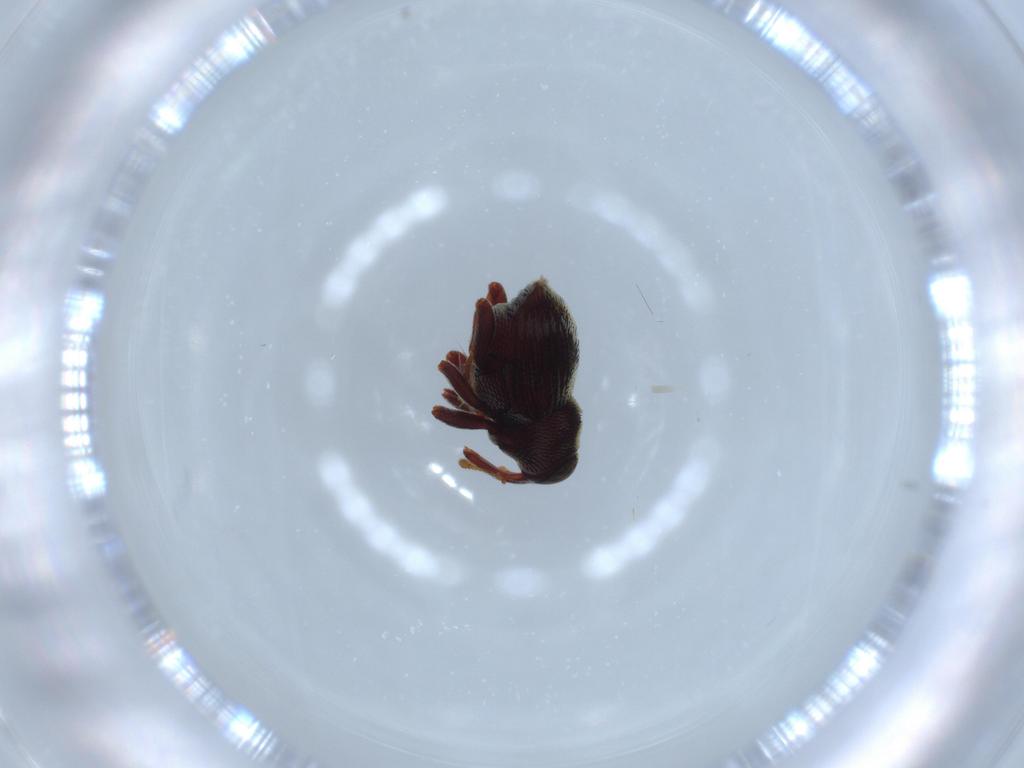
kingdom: Animalia
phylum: Arthropoda
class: Insecta
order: Coleoptera
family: Curculionidae
